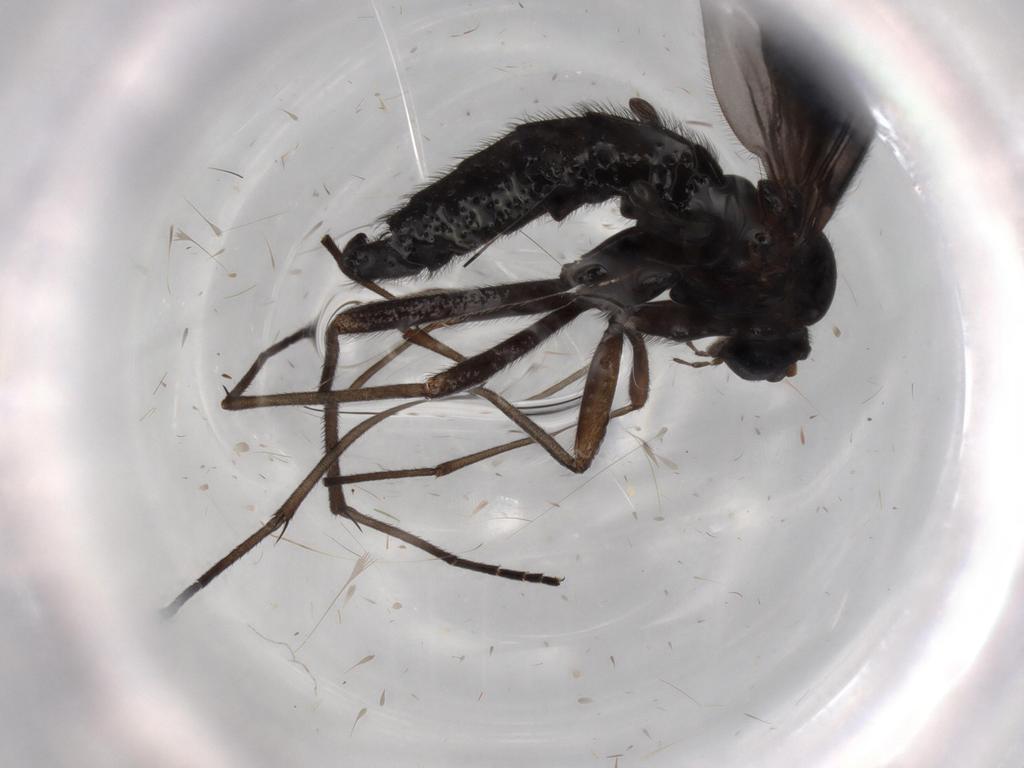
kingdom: Animalia
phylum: Arthropoda
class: Insecta
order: Diptera
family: Hybotidae
